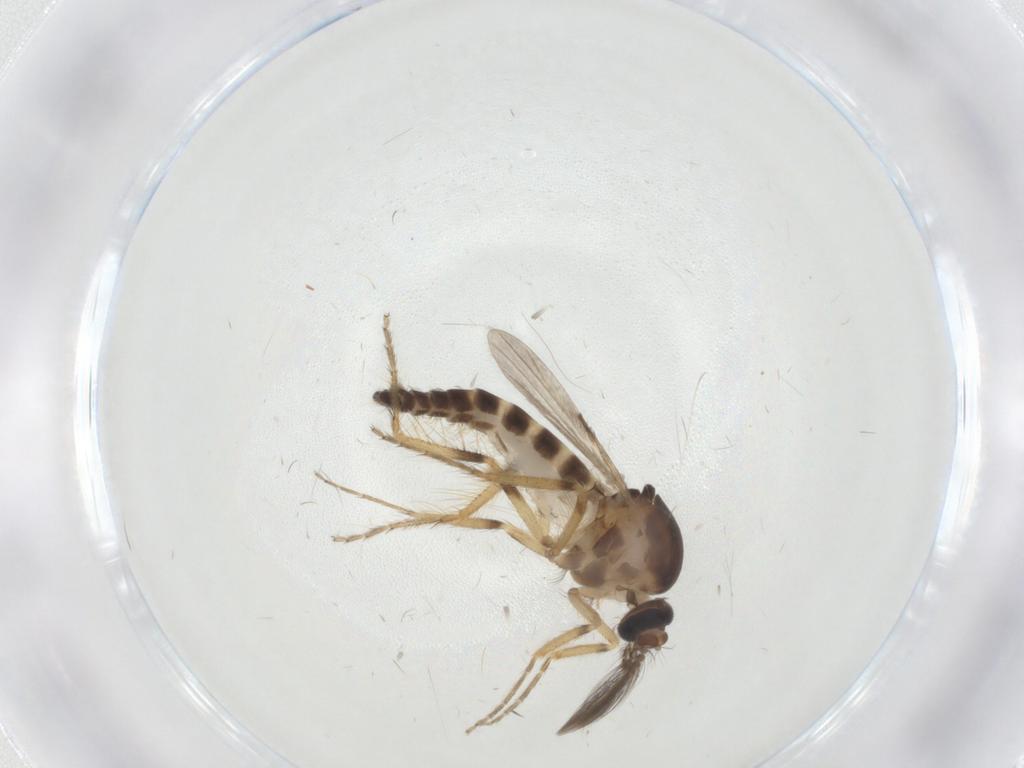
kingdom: Animalia
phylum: Arthropoda
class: Insecta
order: Diptera
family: Ceratopogonidae
